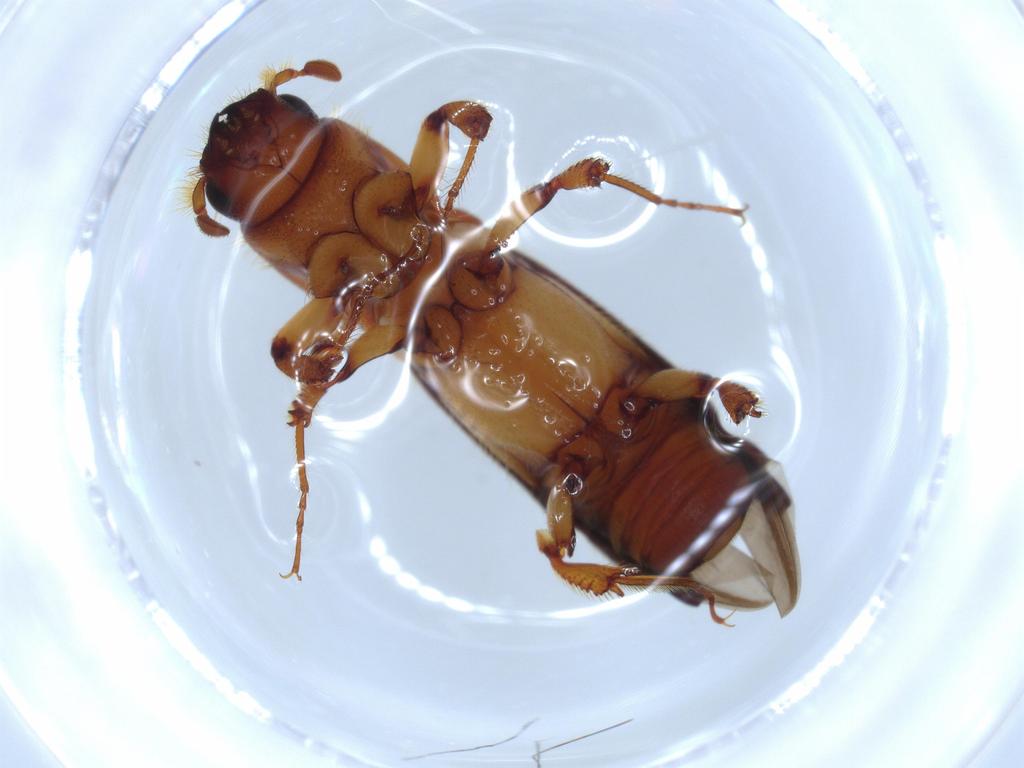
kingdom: Animalia
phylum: Arthropoda
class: Insecta
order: Coleoptera
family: Curculionidae
